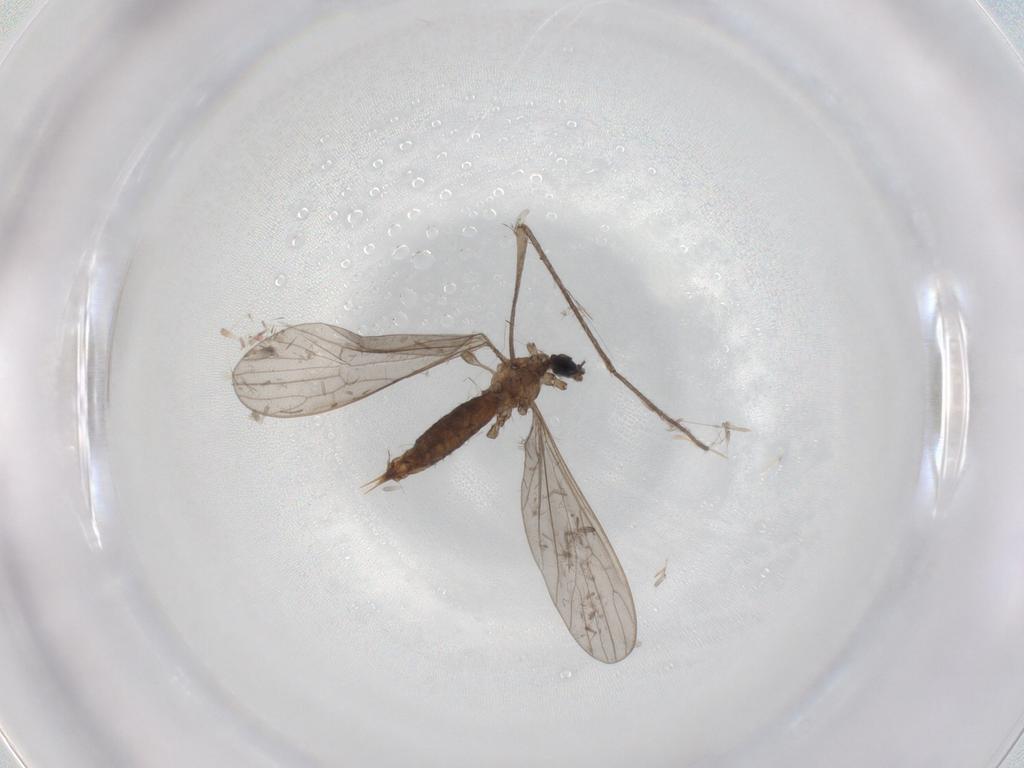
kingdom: Animalia
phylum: Arthropoda
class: Insecta
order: Diptera
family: Limoniidae
